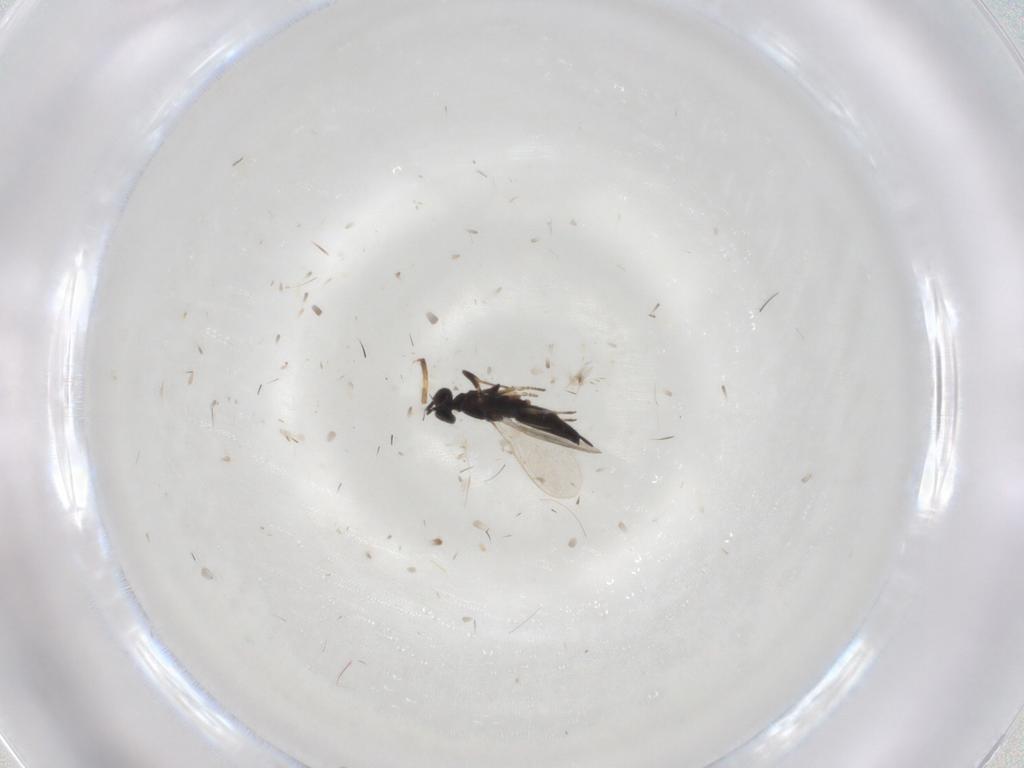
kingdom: Animalia
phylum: Arthropoda
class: Insecta
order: Hymenoptera
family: Eupelmidae
